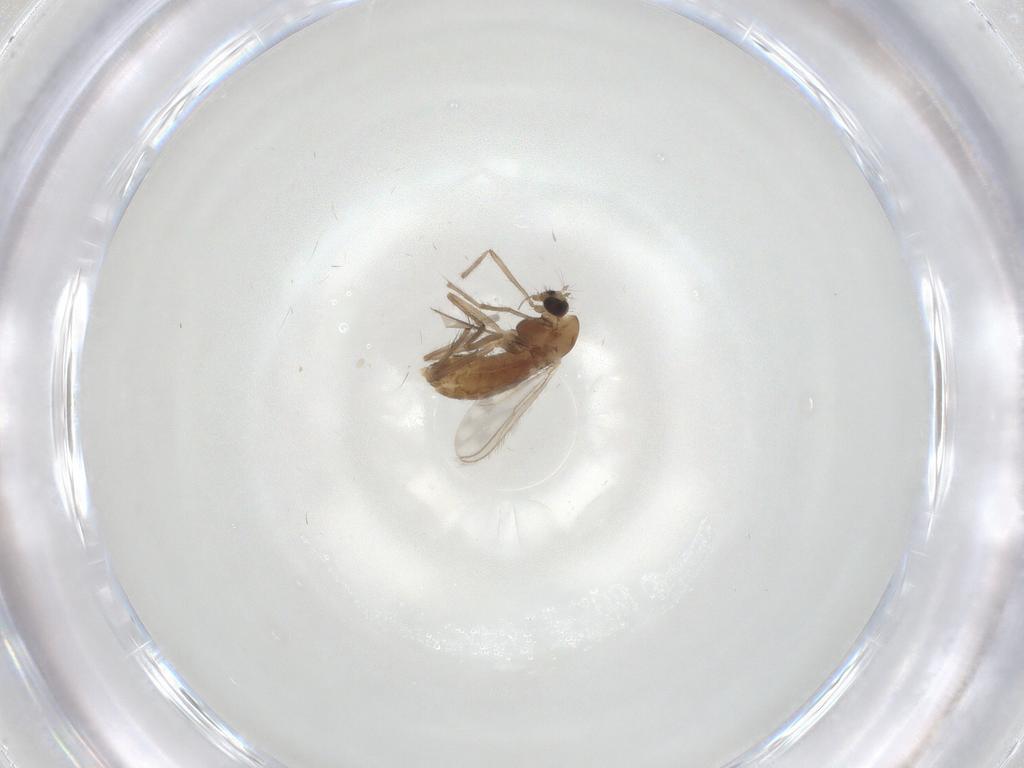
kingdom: Animalia
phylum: Arthropoda
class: Insecta
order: Diptera
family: Chironomidae
